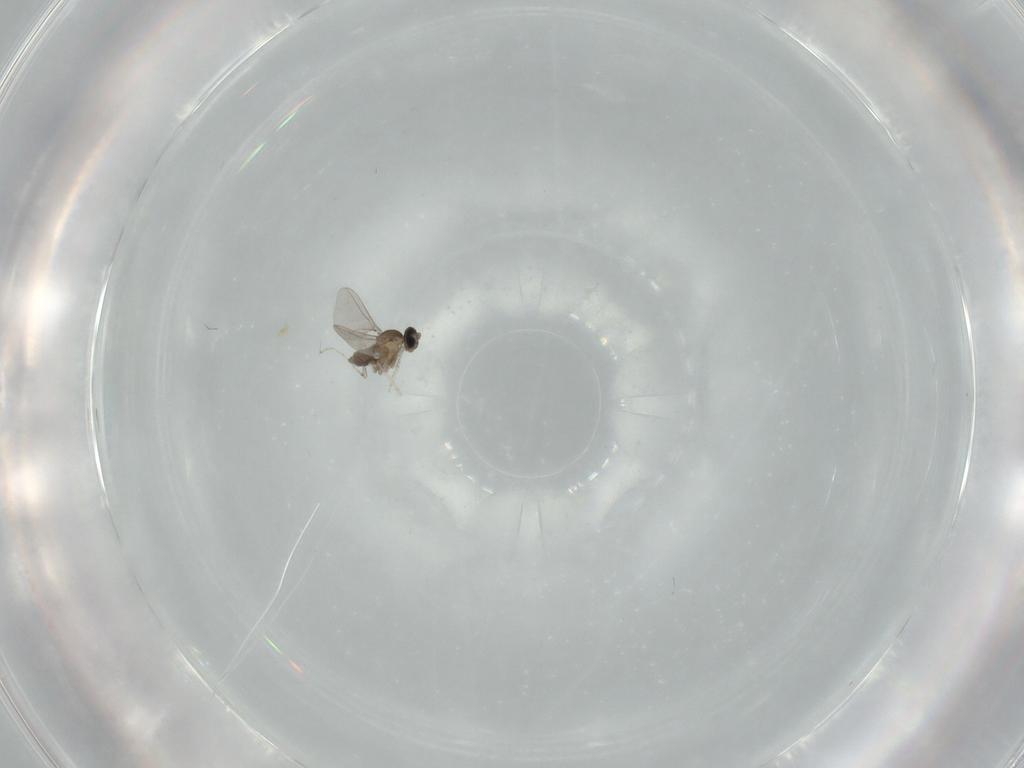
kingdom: Animalia
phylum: Arthropoda
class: Insecta
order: Diptera
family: Cecidomyiidae
